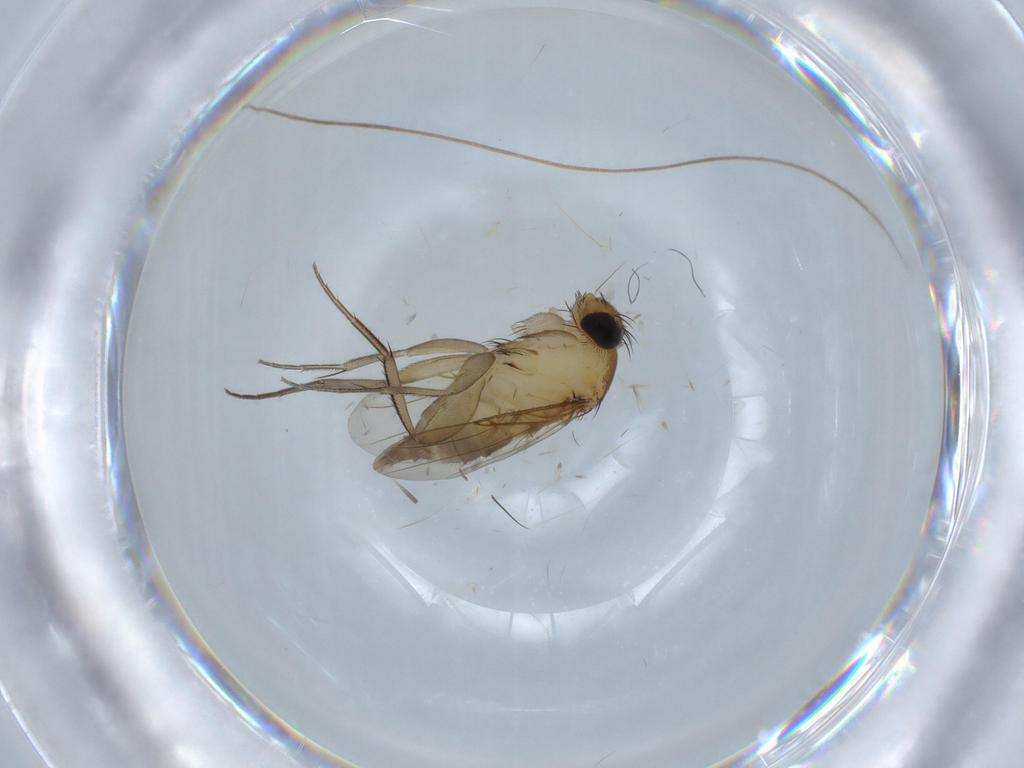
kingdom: Animalia
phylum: Arthropoda
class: Insecta
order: Diptera
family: Phoridae
